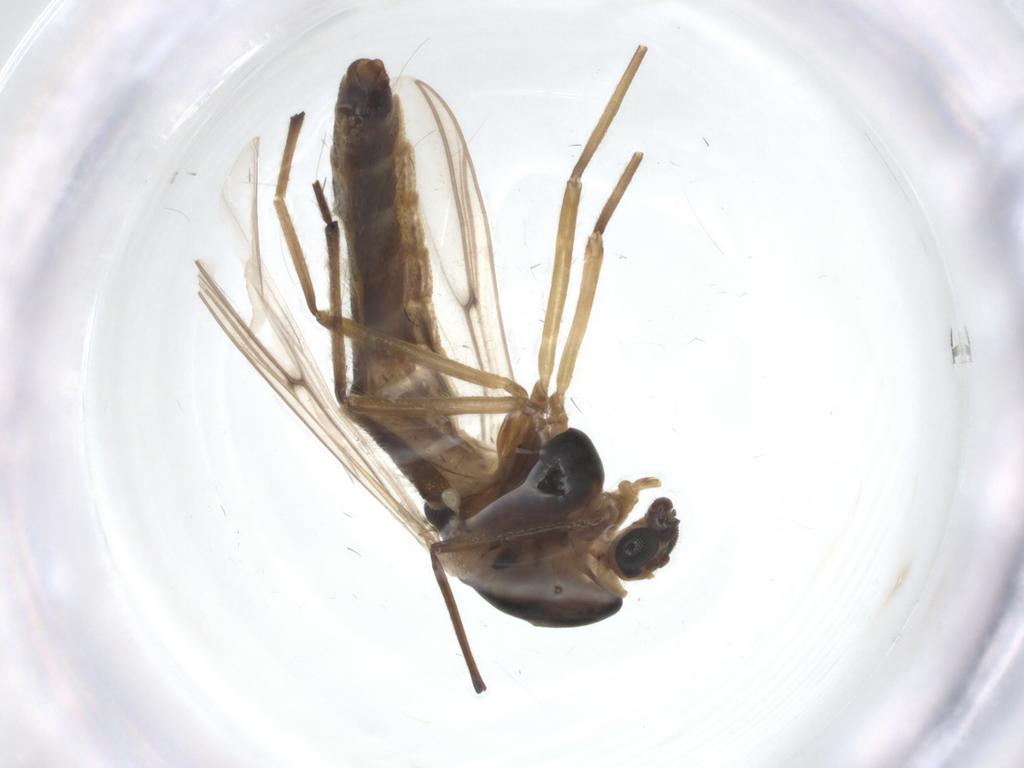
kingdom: Animalia
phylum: Arthropoda
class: Insecta
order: Diptera
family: Chironomidae
